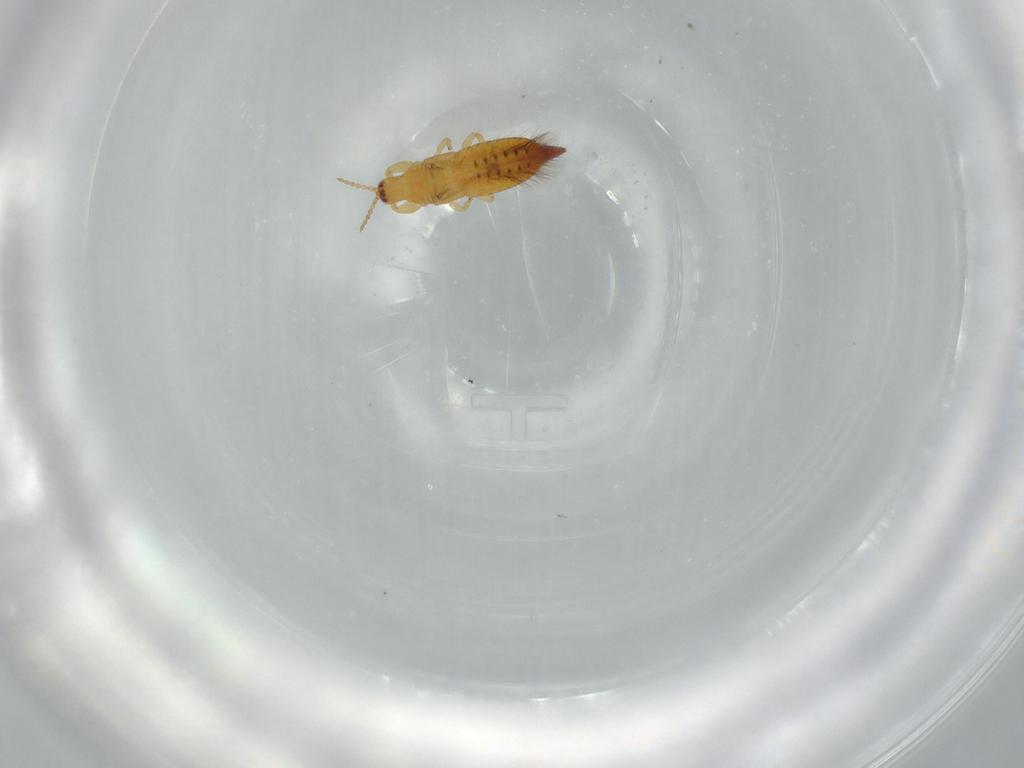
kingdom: Animalia
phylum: Arthropoda
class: Insecta
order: Thysanoptera
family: Phlaeothripidae
